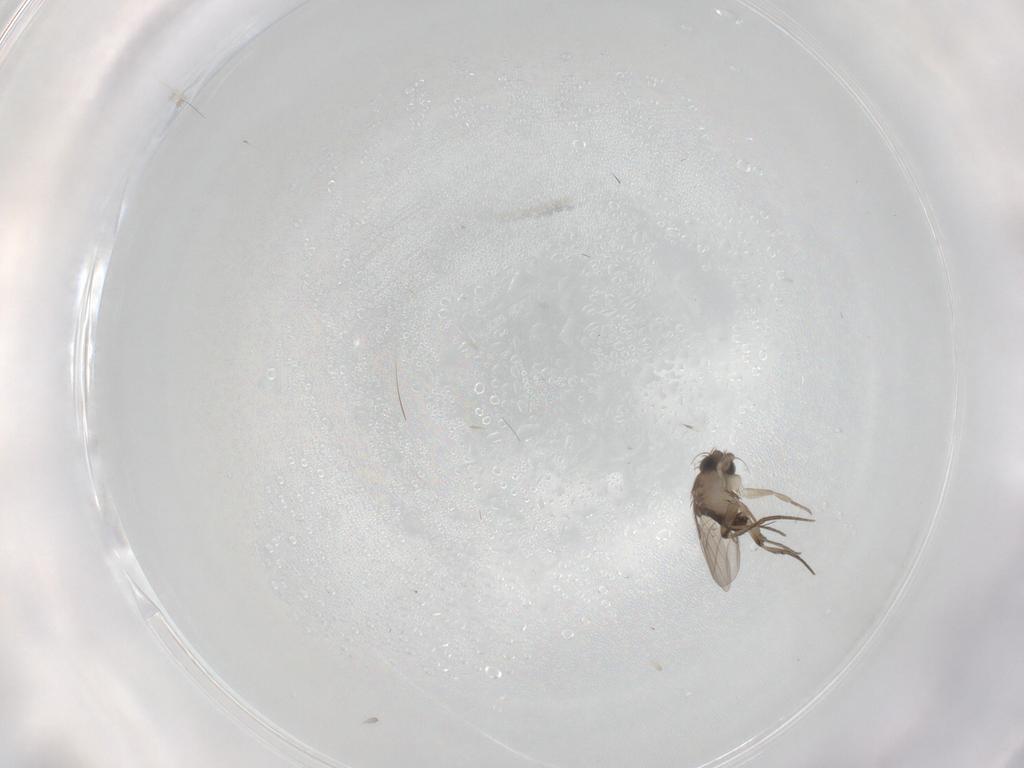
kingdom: Animalia
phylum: Arthropoda
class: Insecta
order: Diptera
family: Phoridae
